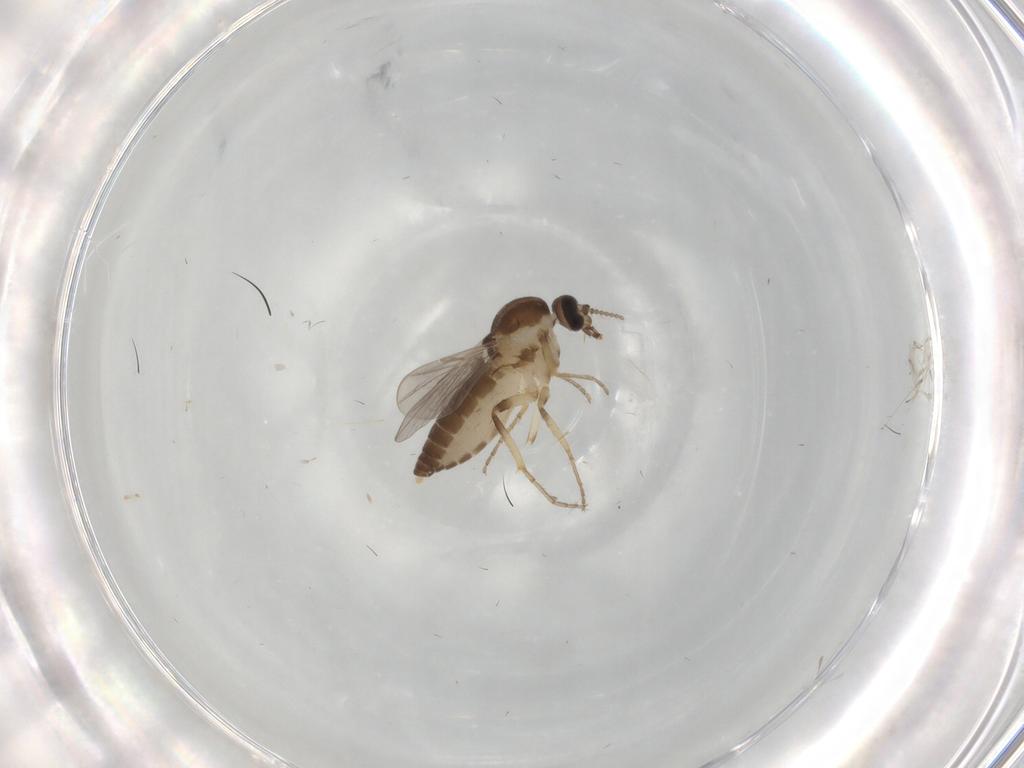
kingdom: Animalia
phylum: Arthropoda
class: Insecta
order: Diptera
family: Ceratopogonidae
